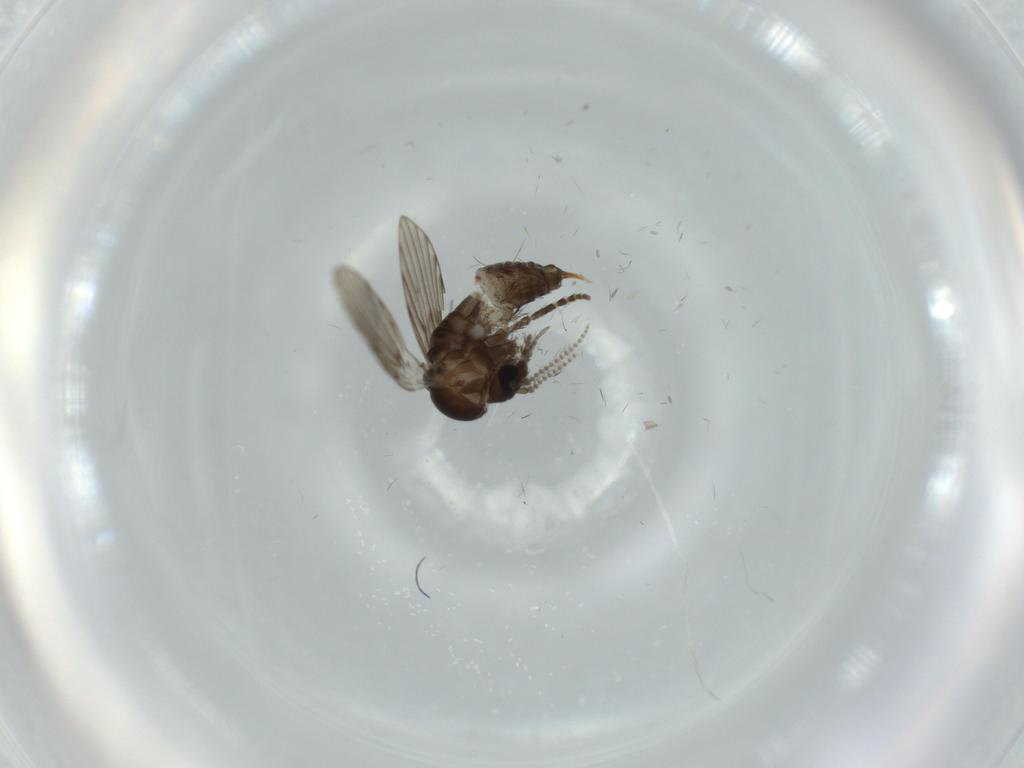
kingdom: Animalia
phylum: Arthropoda
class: Insecta
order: Diptera
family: Psychodidae
